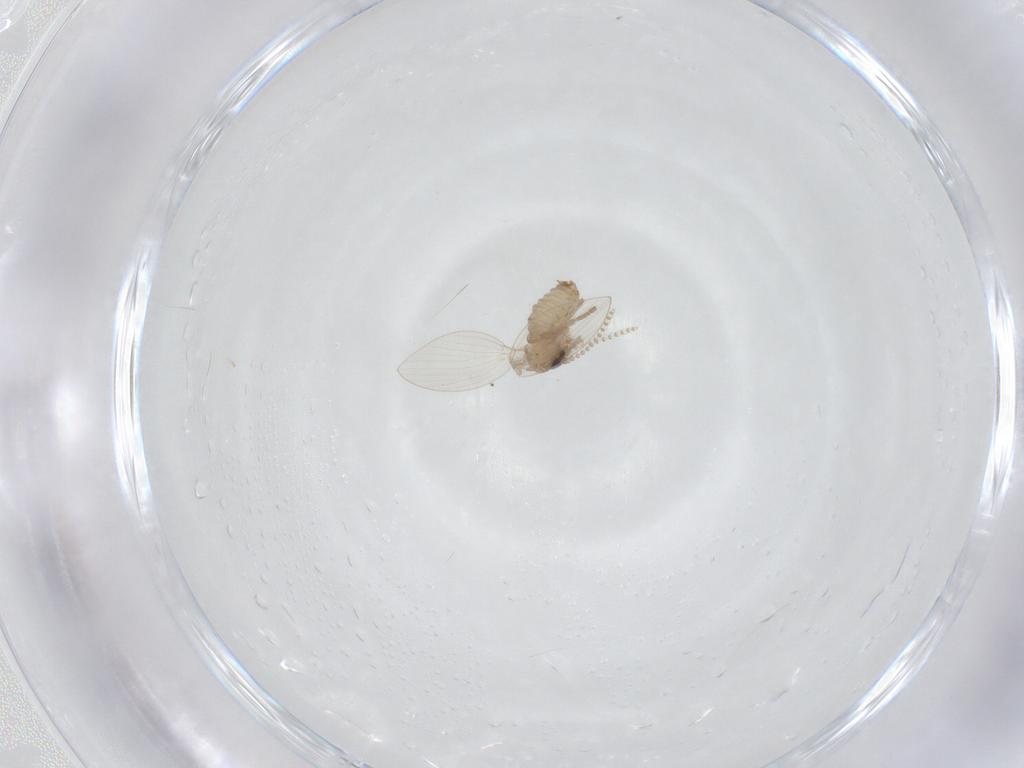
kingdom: Animalia
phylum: Arthropoda
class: Insecta
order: Diptera
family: Psychodidae
